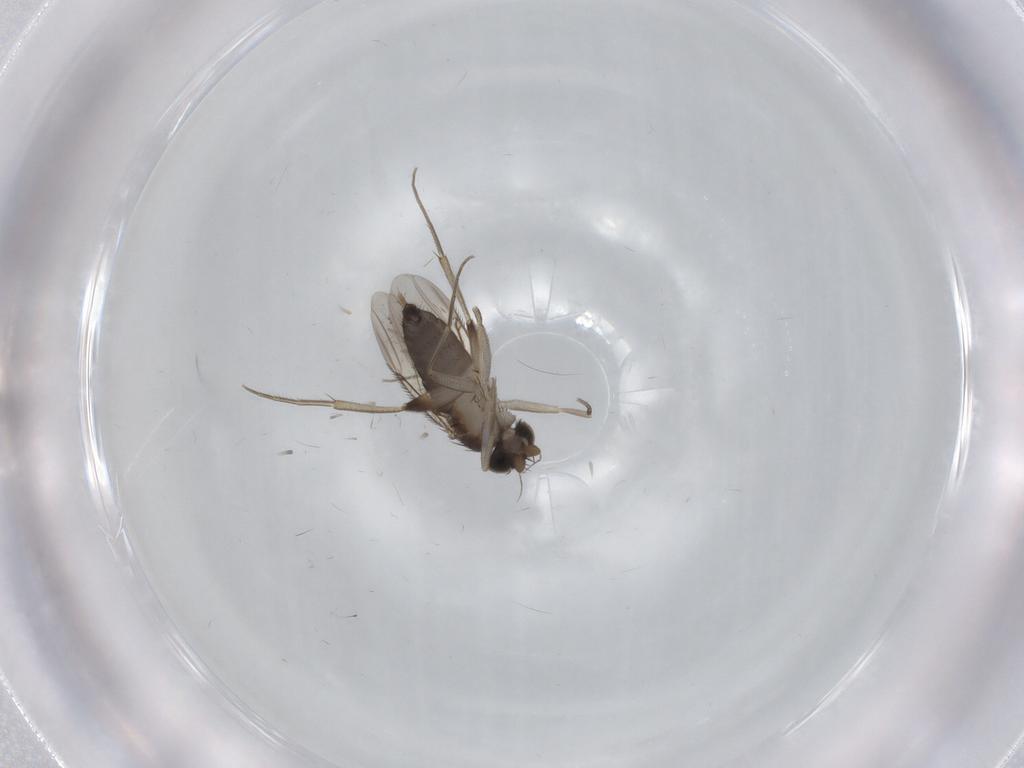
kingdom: Animalia
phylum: Arthropoda
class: Insecta
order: Diptera
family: Phoridae
